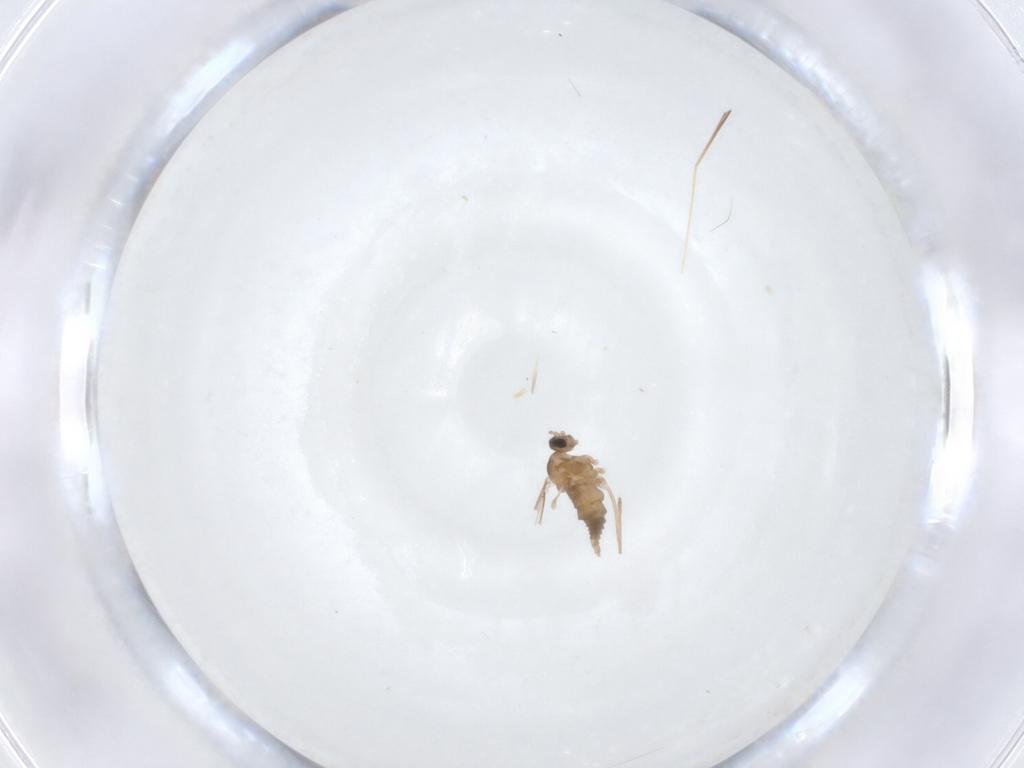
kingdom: Animalia
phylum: Arthropoda
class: Insecta
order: Diptera
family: Cecidomyiidae
